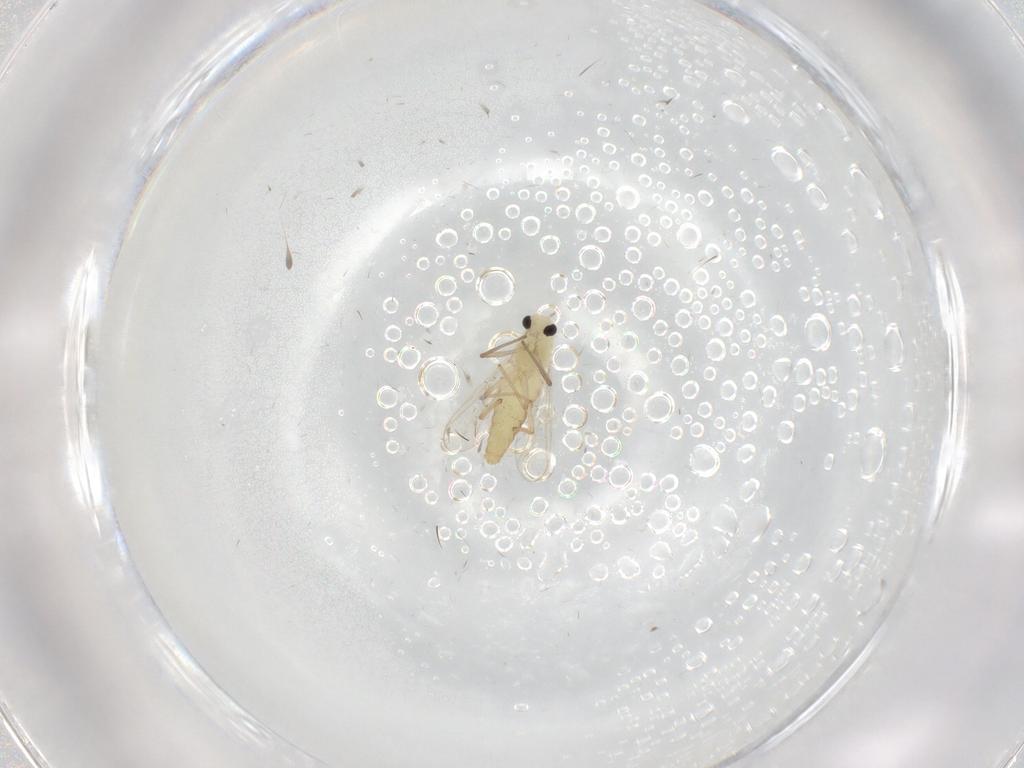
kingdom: Animalia
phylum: Arthropoda
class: Insecta
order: Diptera
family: Chironomidae
